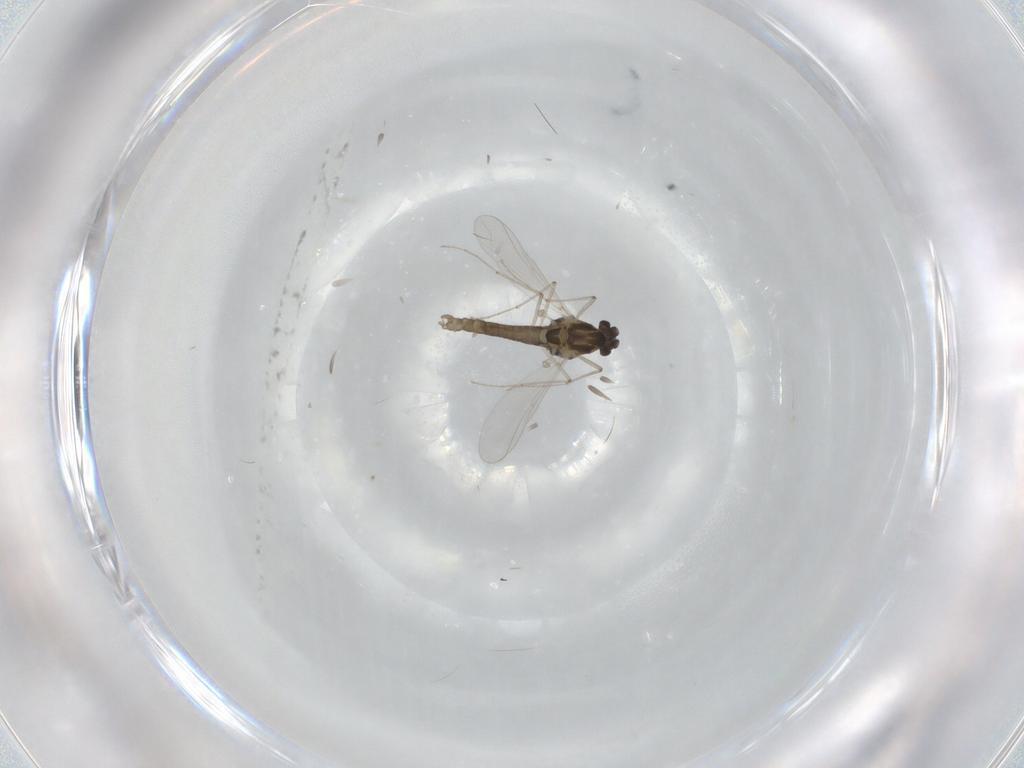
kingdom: Animalia
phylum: Arthropoda
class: Insecta
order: Diptera
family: Chironomidae
